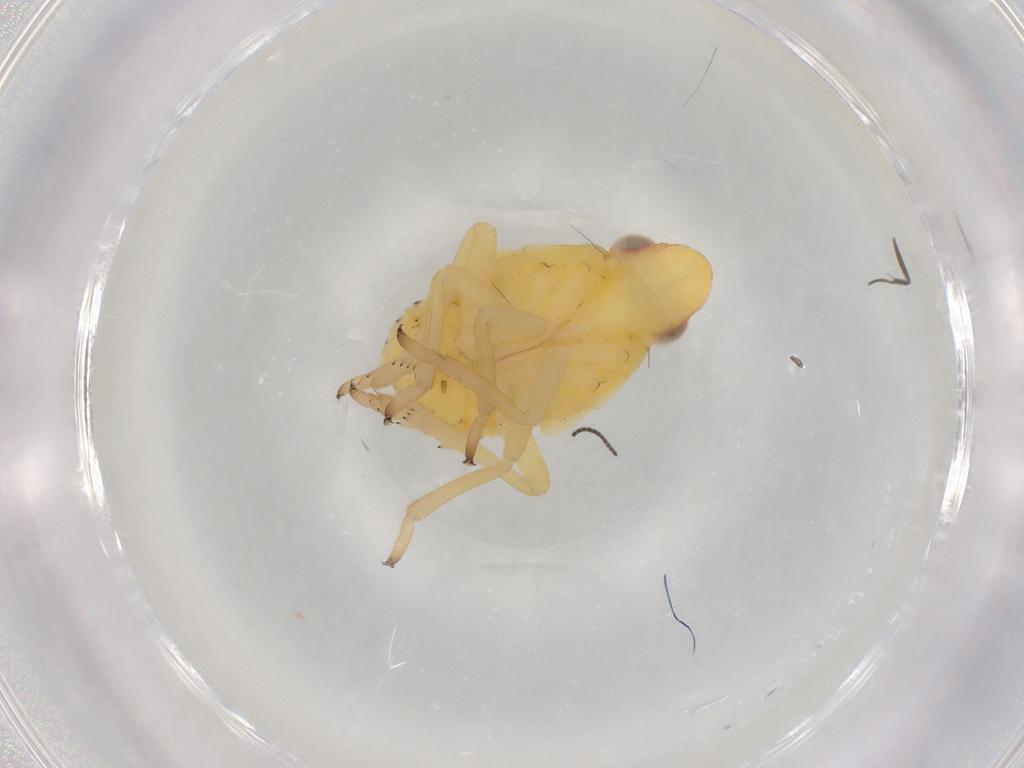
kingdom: Animalia
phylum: Arthropoda
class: Insecta
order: Hemiptera
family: Caliscelidae
